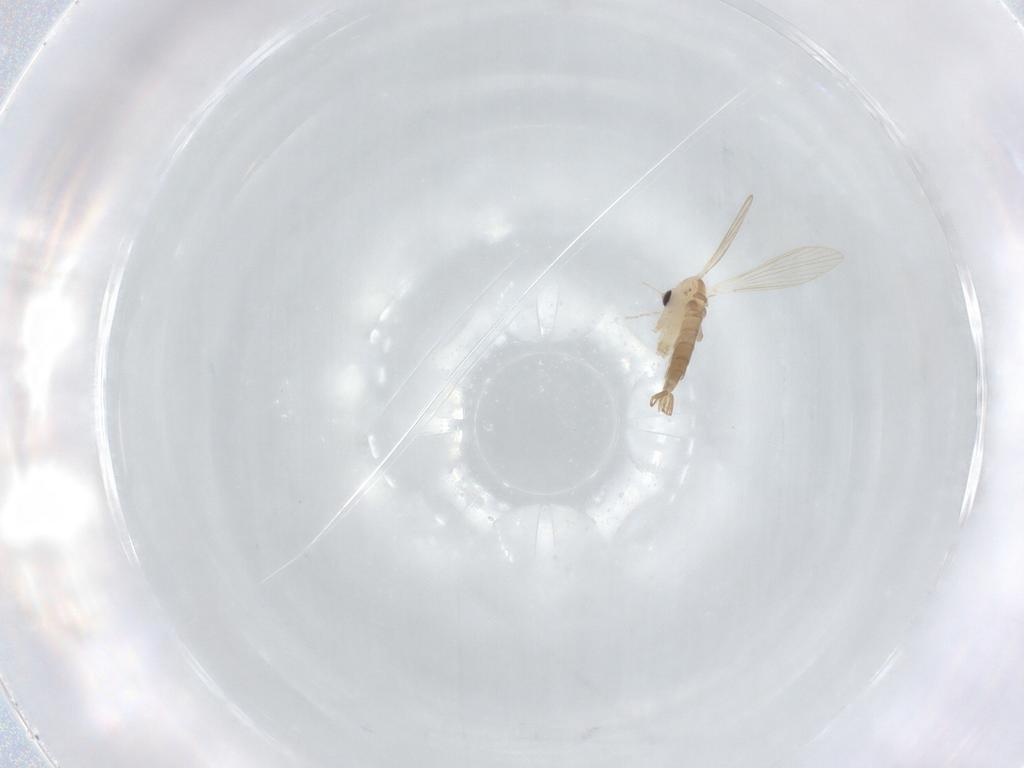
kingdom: Animalia
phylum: Arthropoda
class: Insecta
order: Diptera
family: Psychodidae
